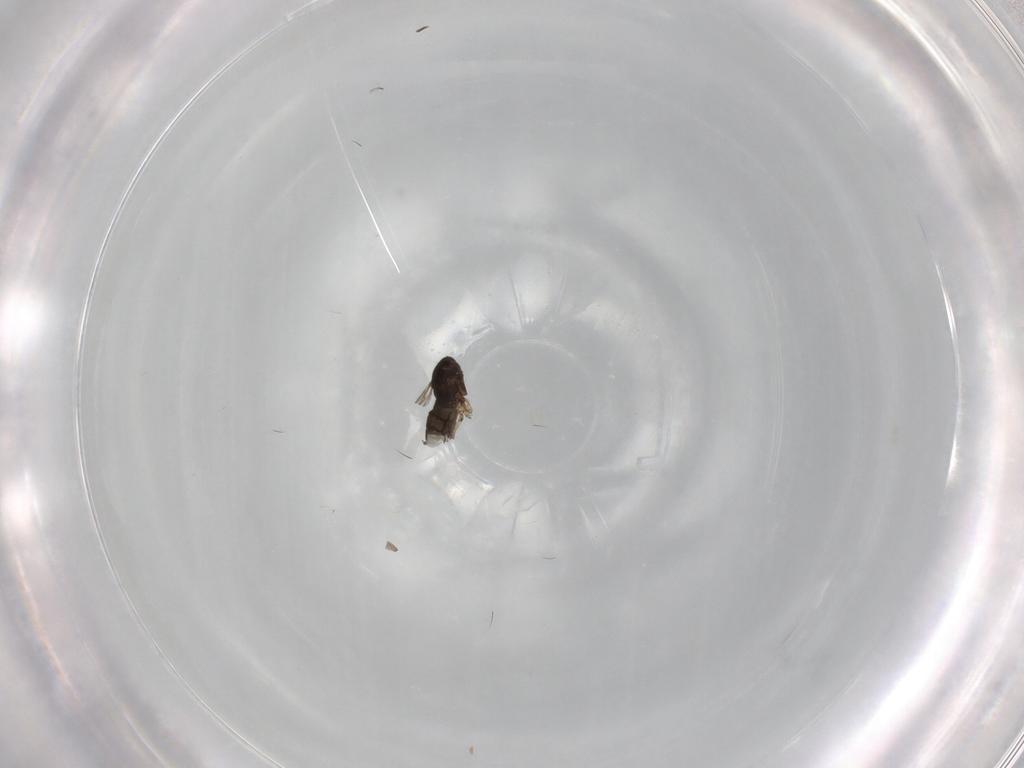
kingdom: Animalia
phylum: Arthropoda
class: Insecta
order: Diptera
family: Sciaridae
